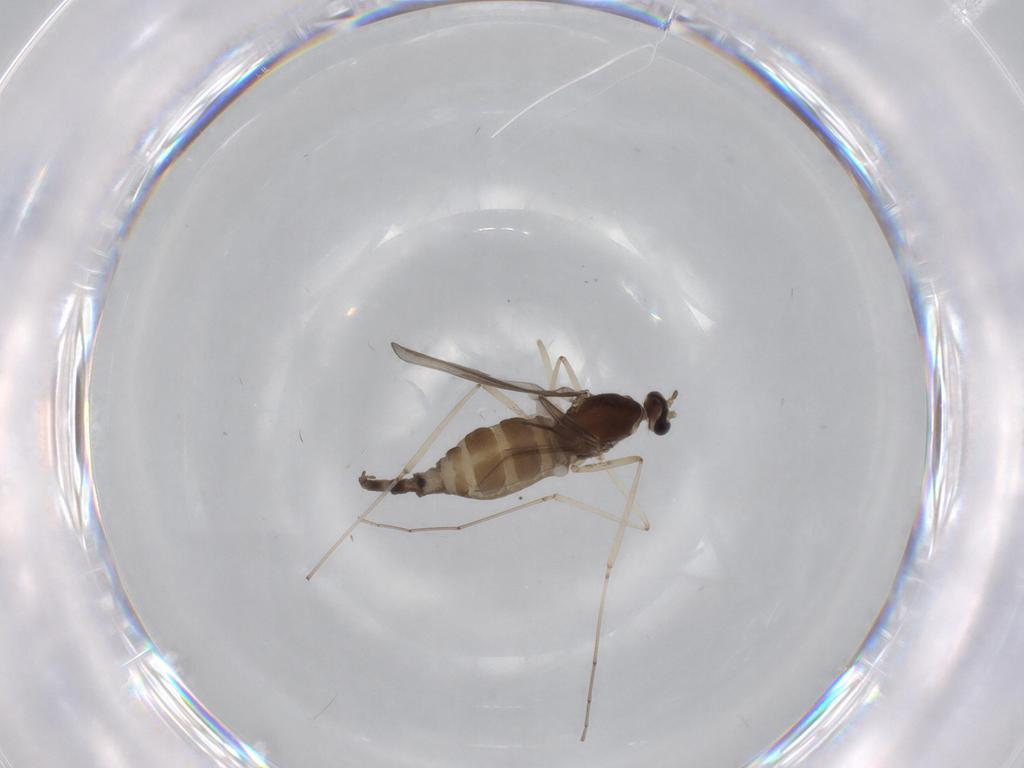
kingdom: Animalia
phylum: Arthropoda
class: Insecta
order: Diptera
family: Cecidomyiidae
